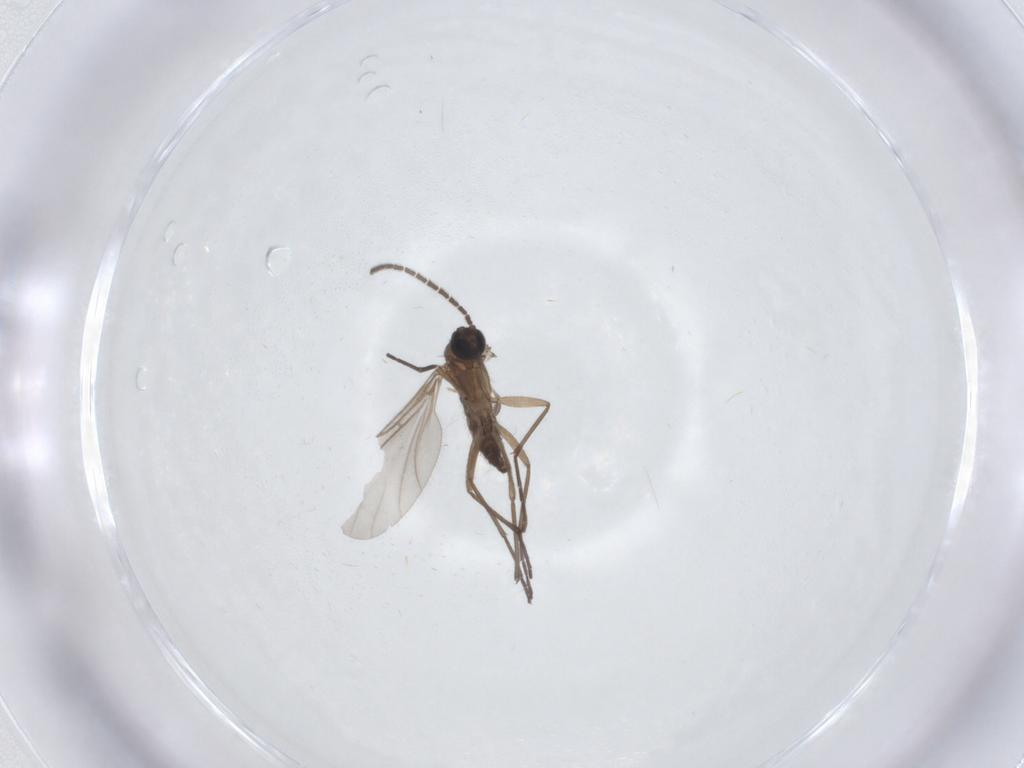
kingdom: Animalia
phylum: Arthropoda
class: Insecta
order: Diptera
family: Sciaridae
